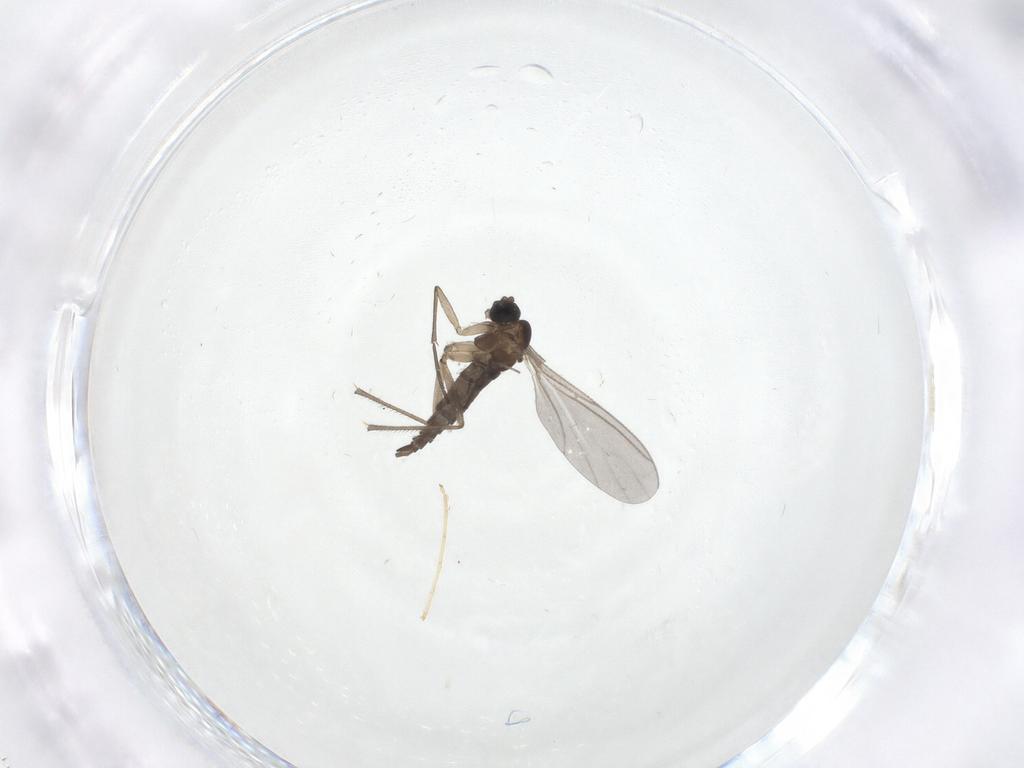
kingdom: Animalia
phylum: Arthropoda
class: Insecta
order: Diptera
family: Sciaridae
